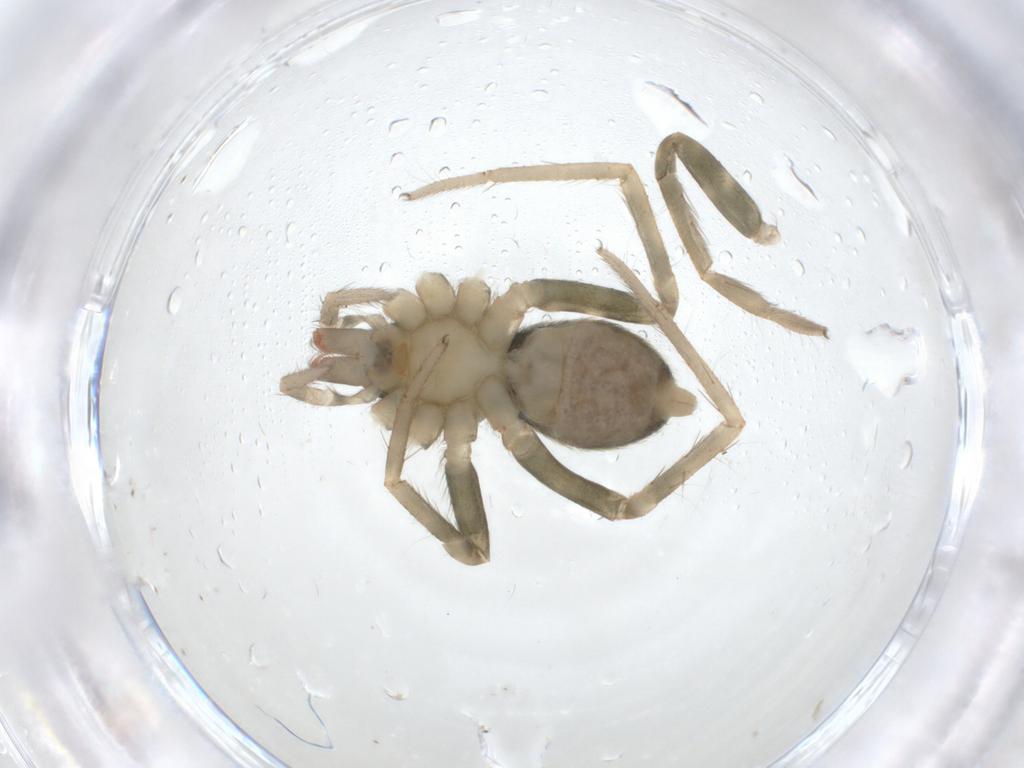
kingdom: Animalia
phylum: Arthropoda
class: Arachnida
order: Araneae
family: Agelenidae
